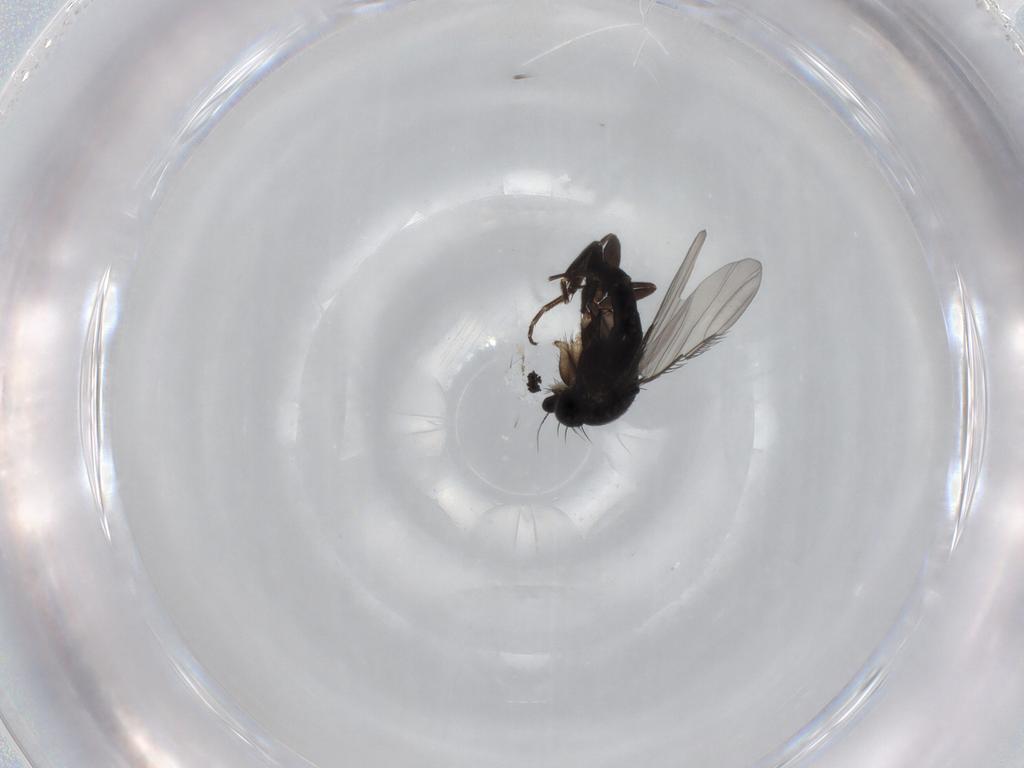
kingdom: Animalia
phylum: Arthropoda
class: Insecta
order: Diptera
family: Phoridae
